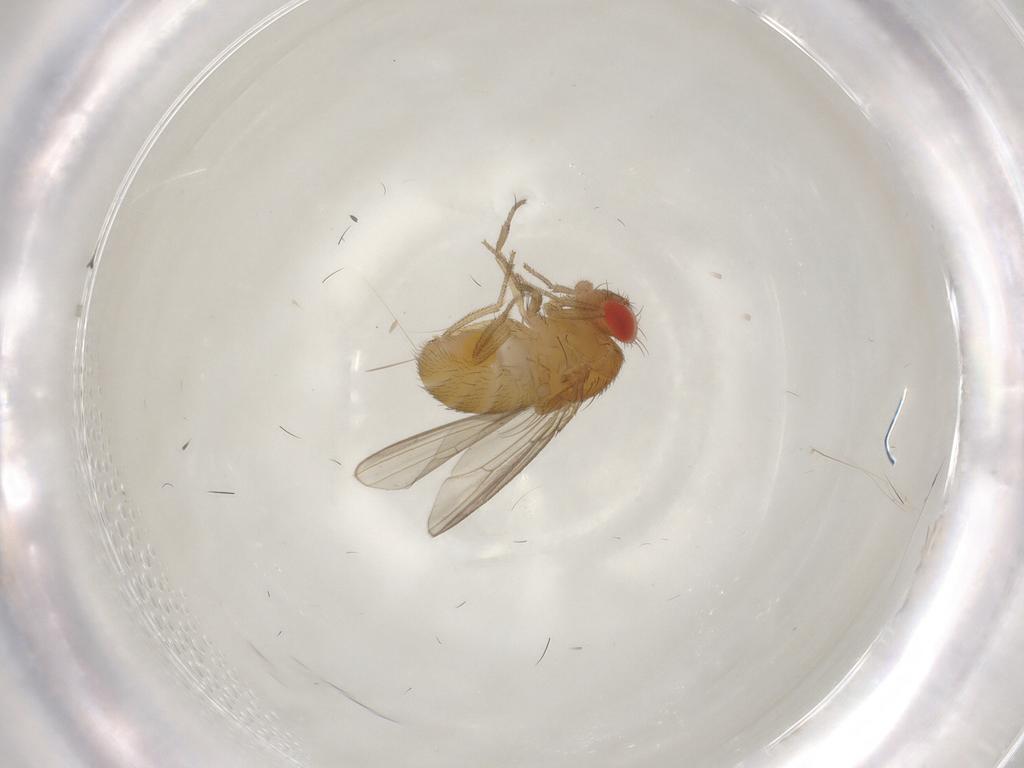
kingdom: Animalia
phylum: Arthropoda
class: Insecta
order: Diptera
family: Drosophilidae
